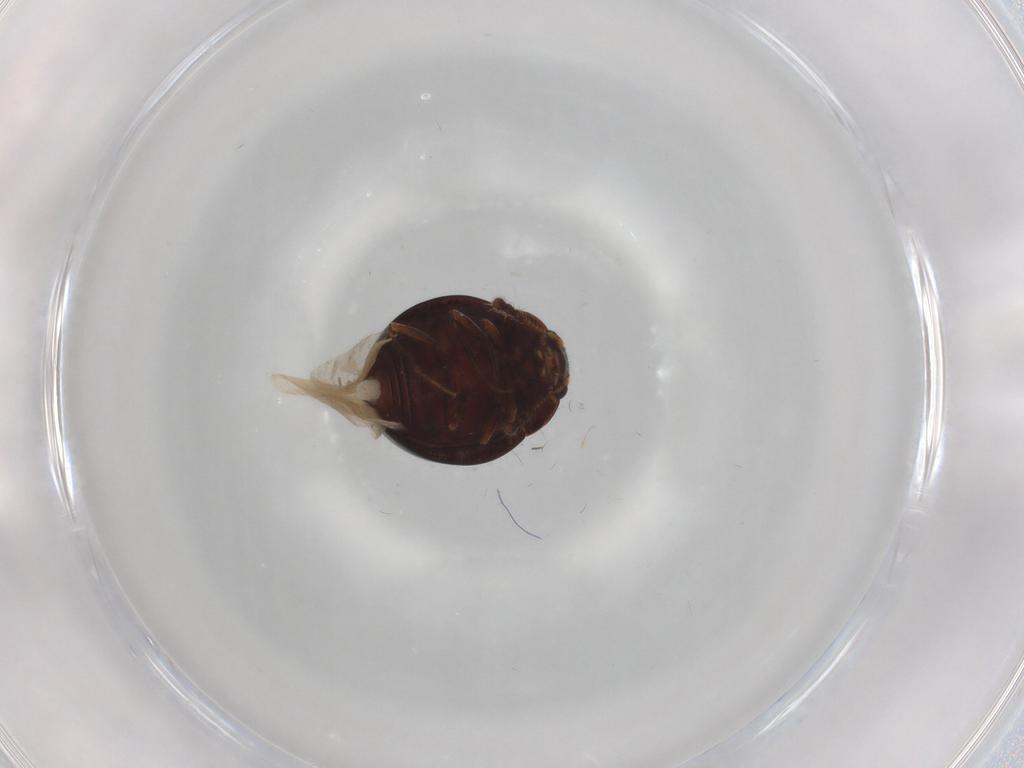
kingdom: Animalia
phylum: Arthropoda
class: Insecta
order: Coleoptera
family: Anamorphidae
